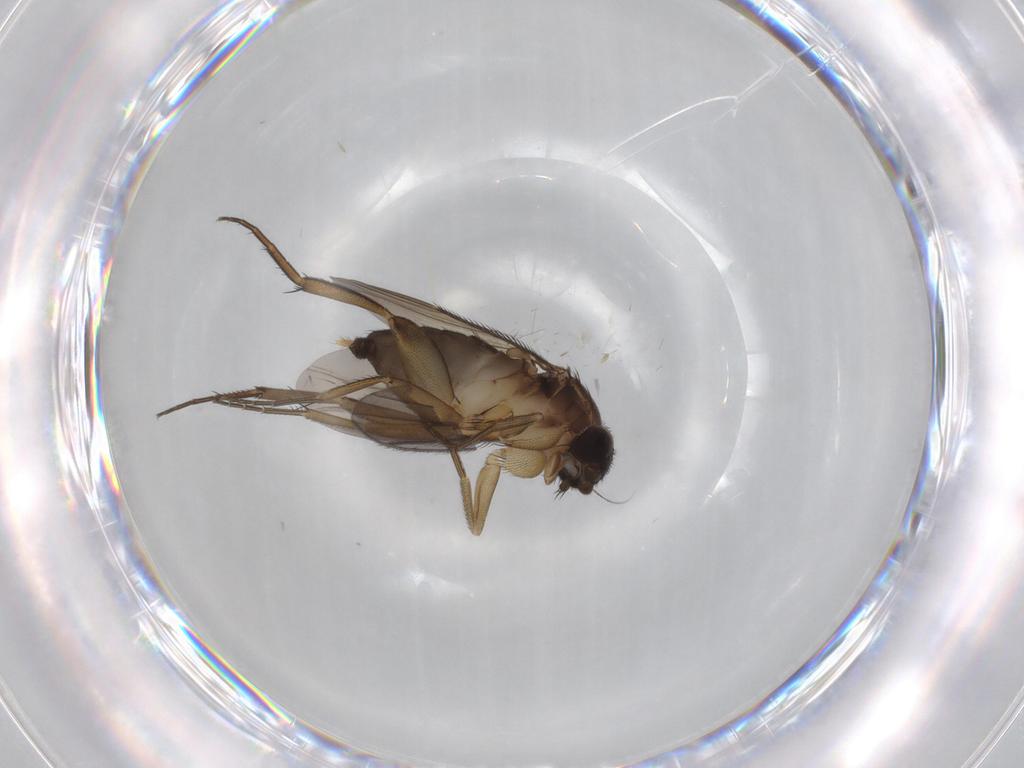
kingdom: Animalia
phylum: Arthropoda
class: Insecta
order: Diptera
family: Phoridae
